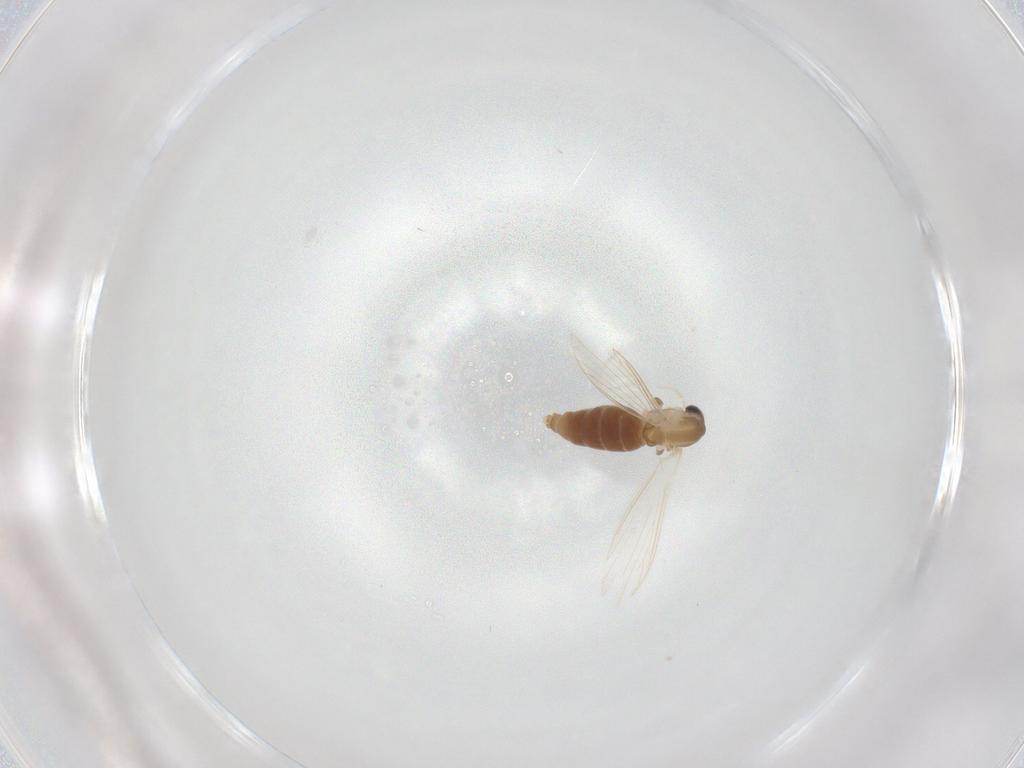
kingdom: Animalia
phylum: Arthropoda
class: Insecta
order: Diptera
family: Psychodidae
